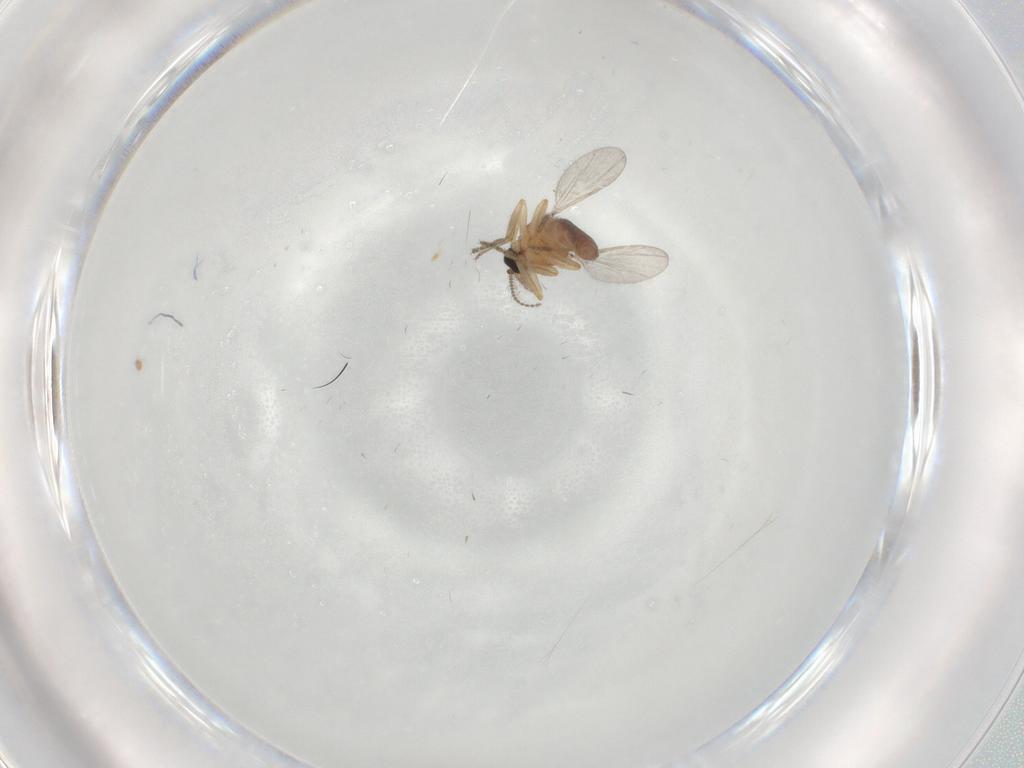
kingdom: Animalia
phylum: Arthropoda
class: Insecta
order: Diptera
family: Ceratopogonidae
